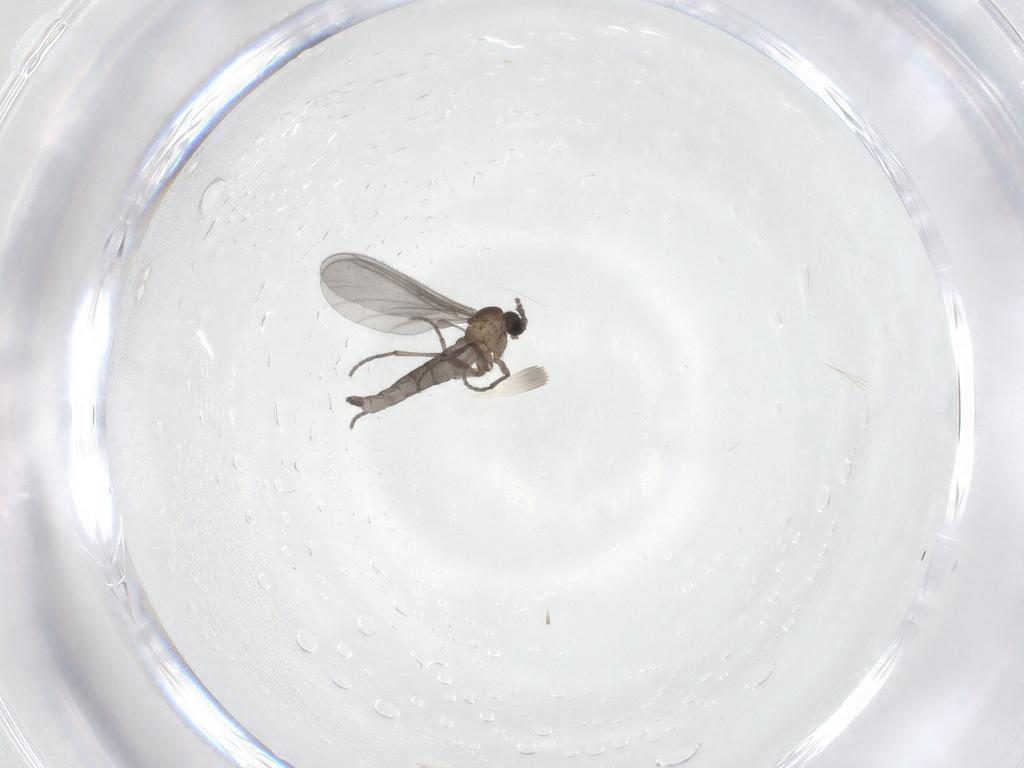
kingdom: Animalia
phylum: Arthropoda
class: Insecta
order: Diptera
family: Sciaridae
